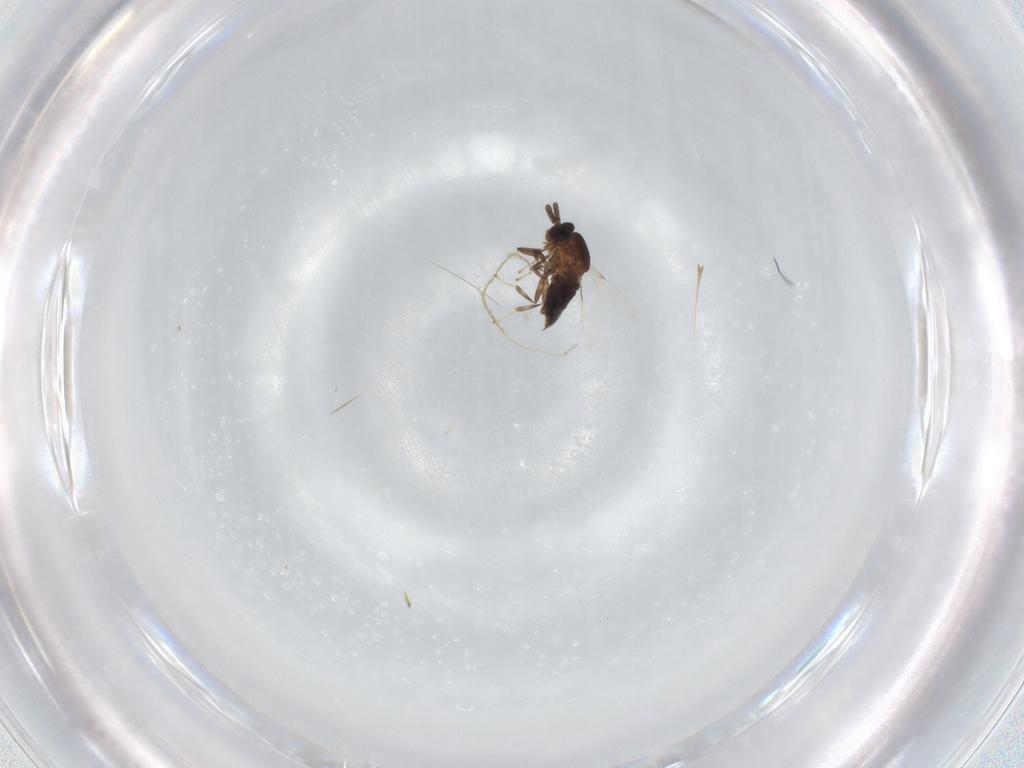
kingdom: Animalia
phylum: Arthropoda
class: Insecta
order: Diptera
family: Scatopsidae
